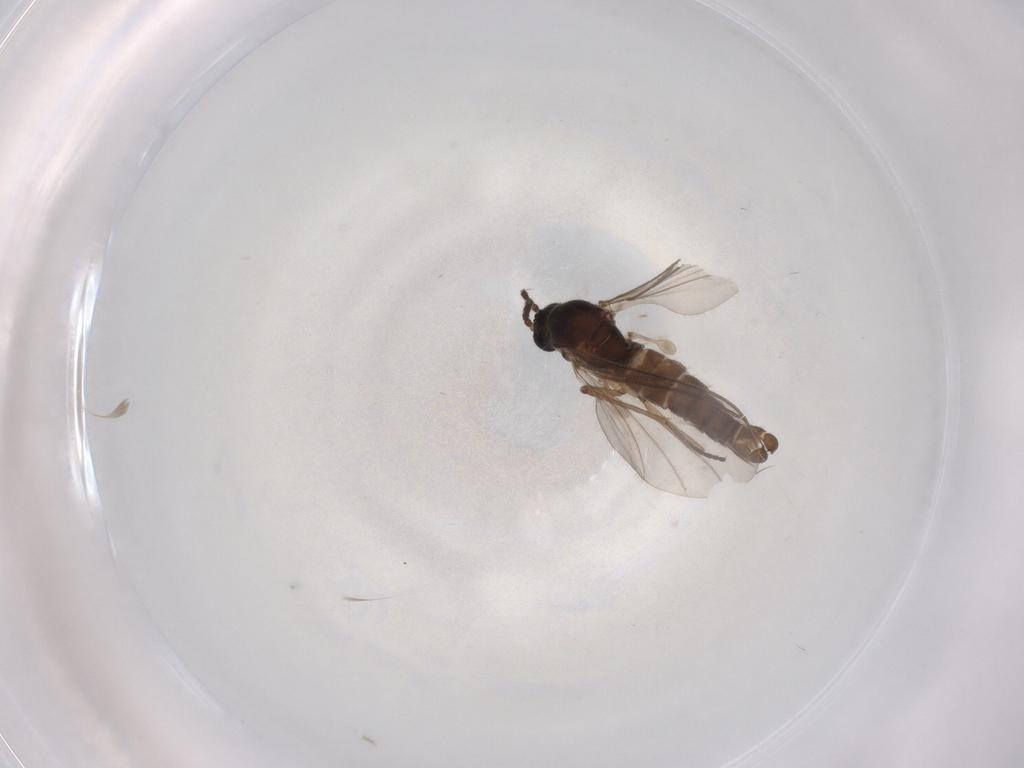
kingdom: Animalia
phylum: Arthropoda
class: Insecta
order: Diptera
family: Sciaridae
